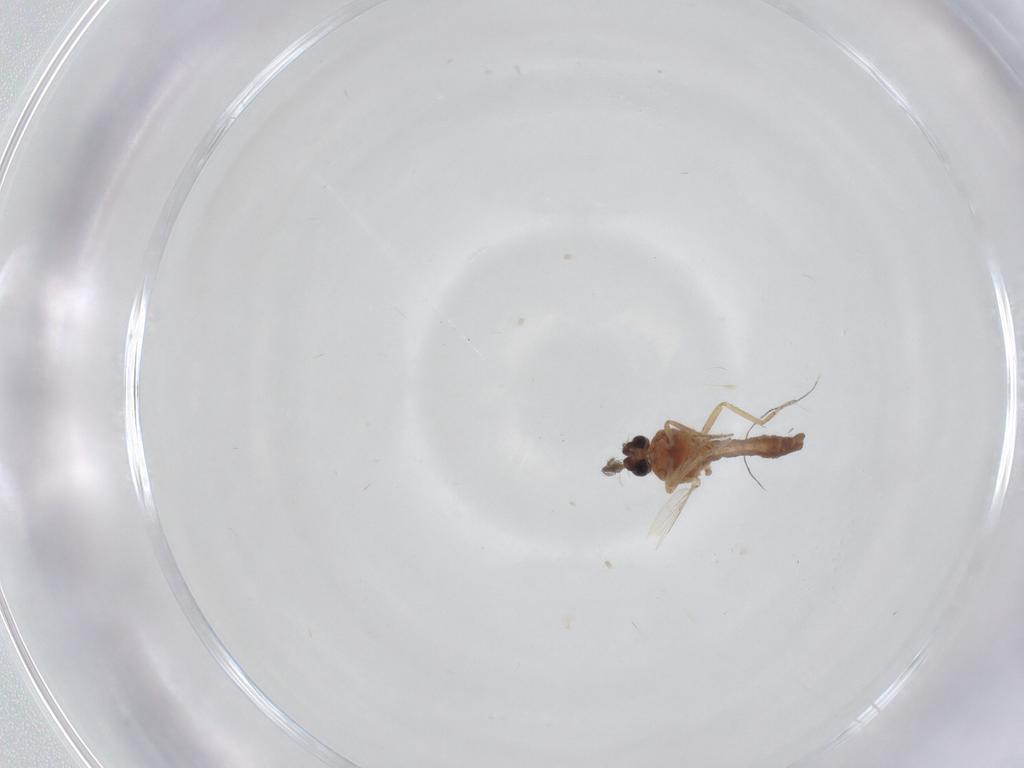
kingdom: Animalia
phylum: Arthropoda
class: Insecta
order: Diptera
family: Ceratopogonidae
